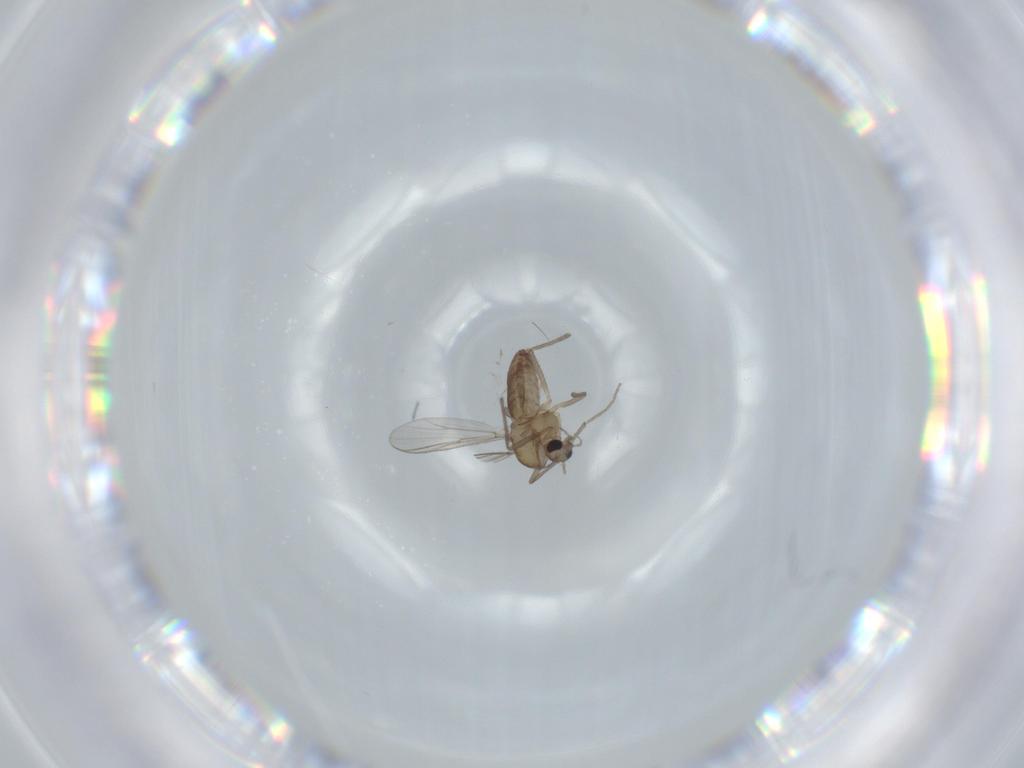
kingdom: Animalia
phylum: Arthropoda
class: Insecta
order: Diptera
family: Chironomidae
